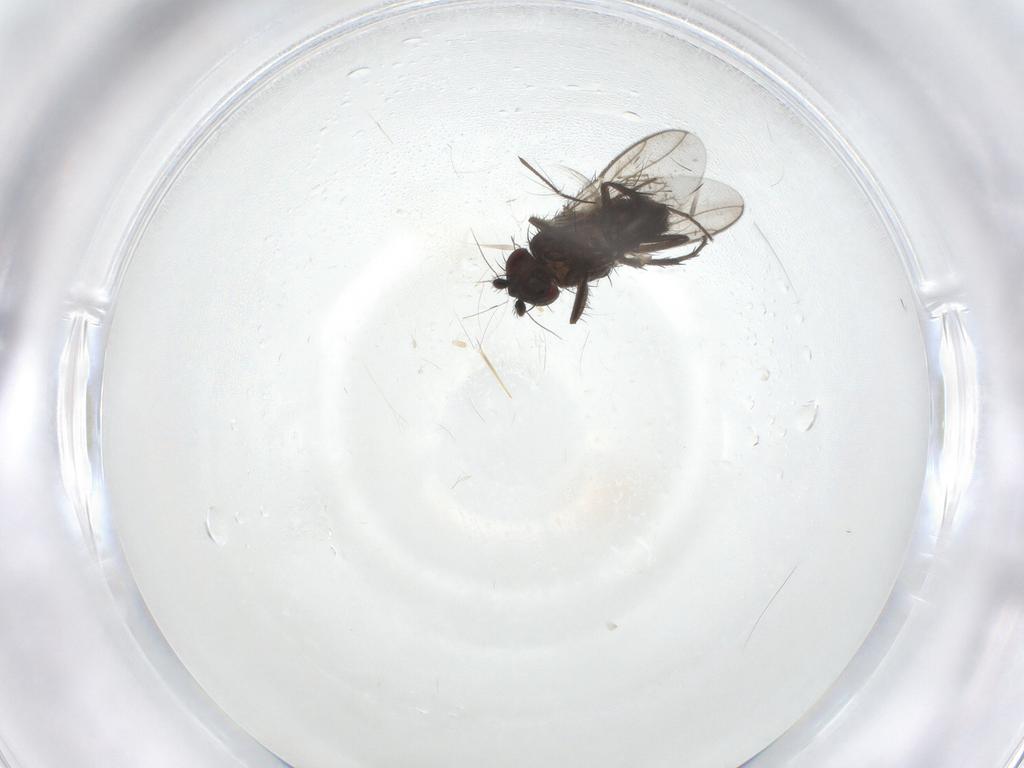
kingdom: Animalia
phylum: Arthropoda
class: Insecta
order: Diptera
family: Sphaeroceridae
